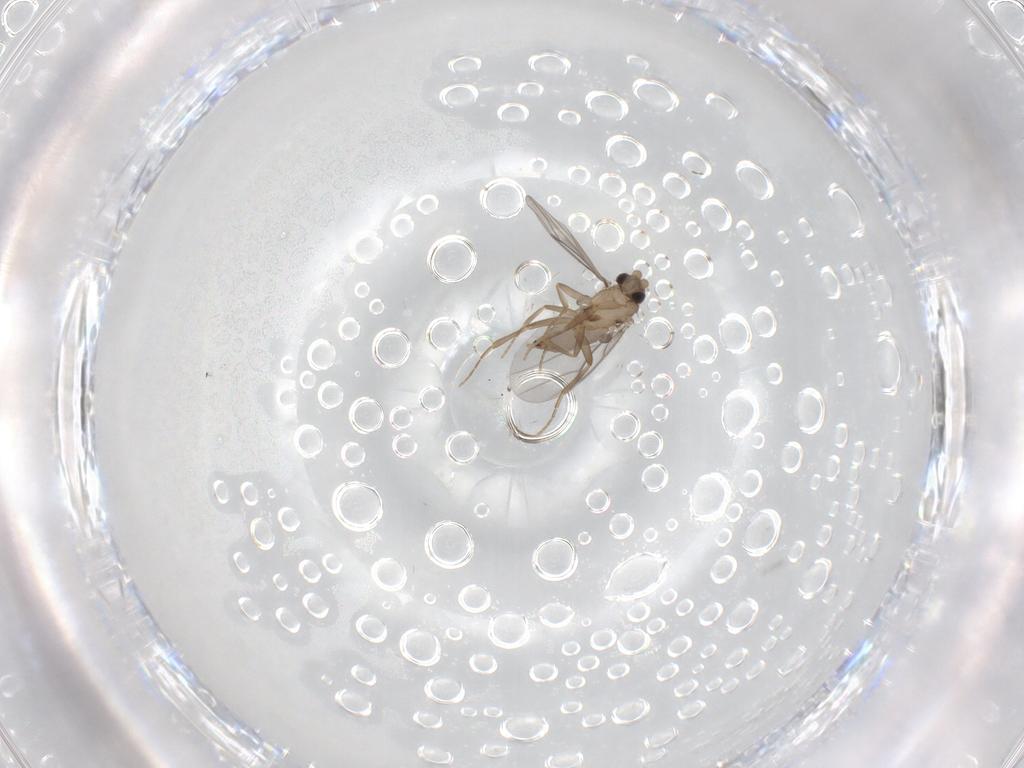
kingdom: Animalia
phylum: Arthropoda
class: Insecta
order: Diptera
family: Chironomidae
